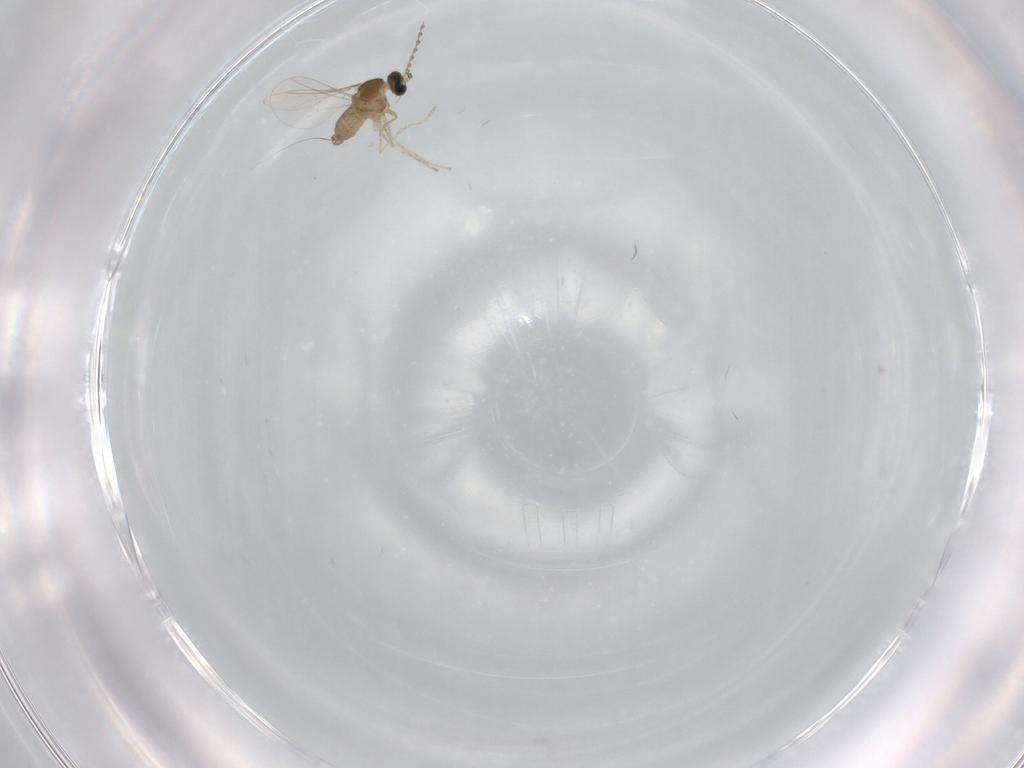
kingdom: Animalia
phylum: Arthropoda
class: Insecta
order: Diptera
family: Cecidomyiidae
